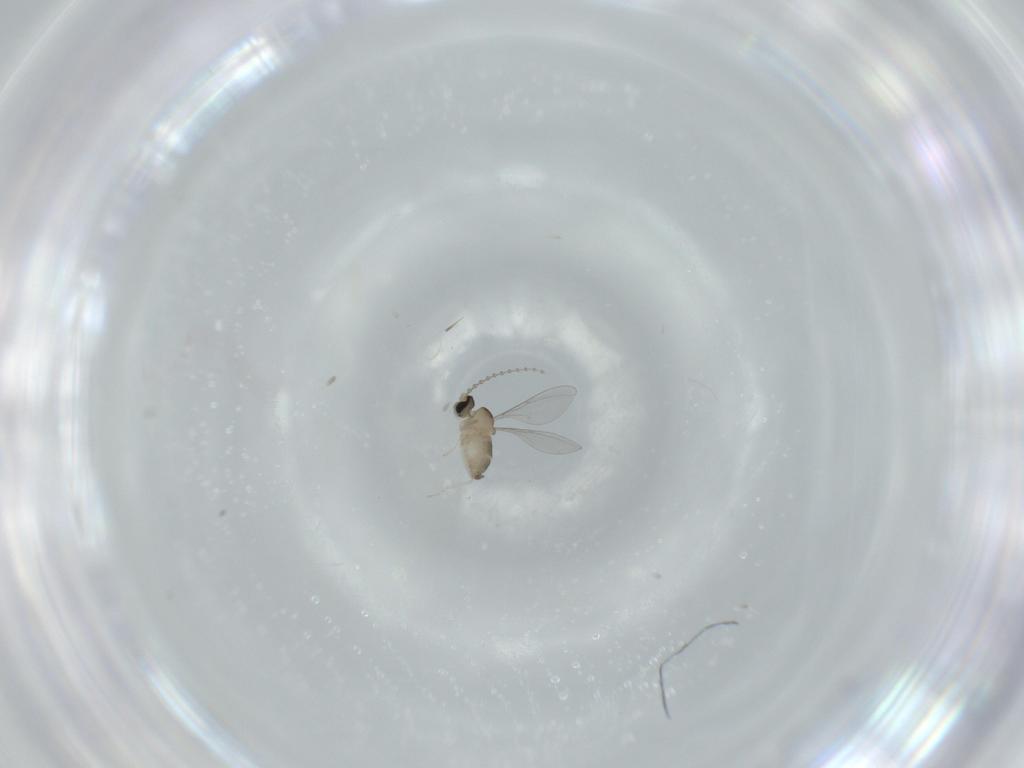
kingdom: Animalia
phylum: Arthropoda
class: Insecta
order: Diptera
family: Cecidomyiidae
